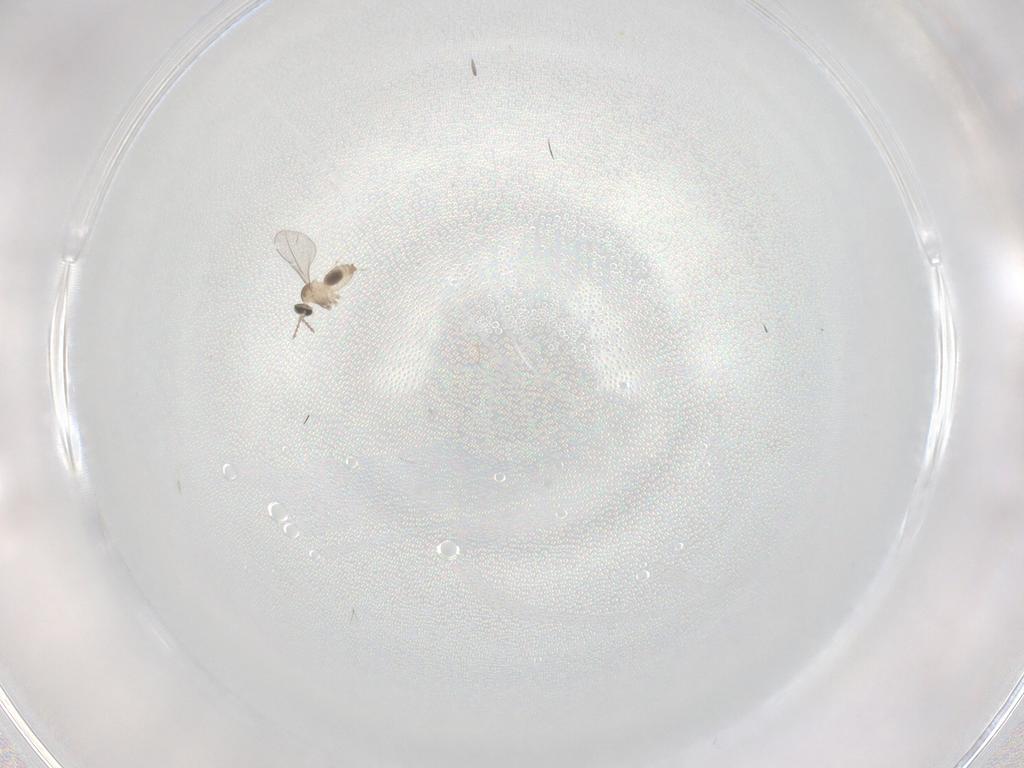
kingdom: Animalia
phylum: Arthropoda
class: Insecta
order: Diptera
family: Cecidomyiidae
